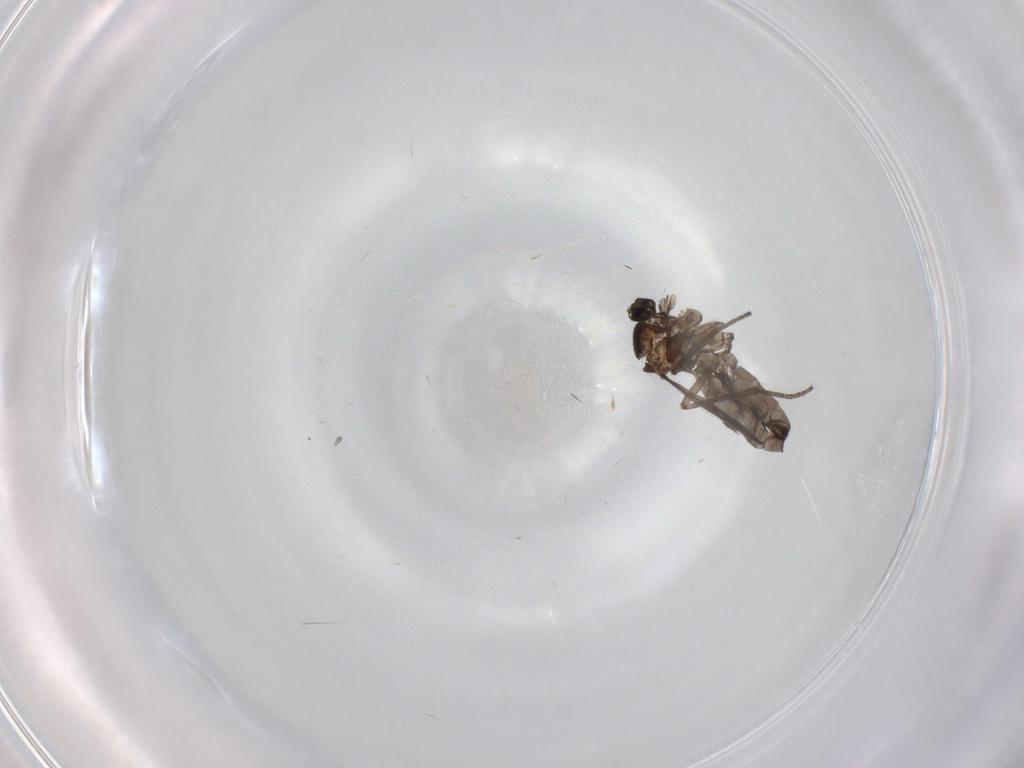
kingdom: Animalia
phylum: Arthropoda
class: Insecta
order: Diptera
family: Sciaridae
